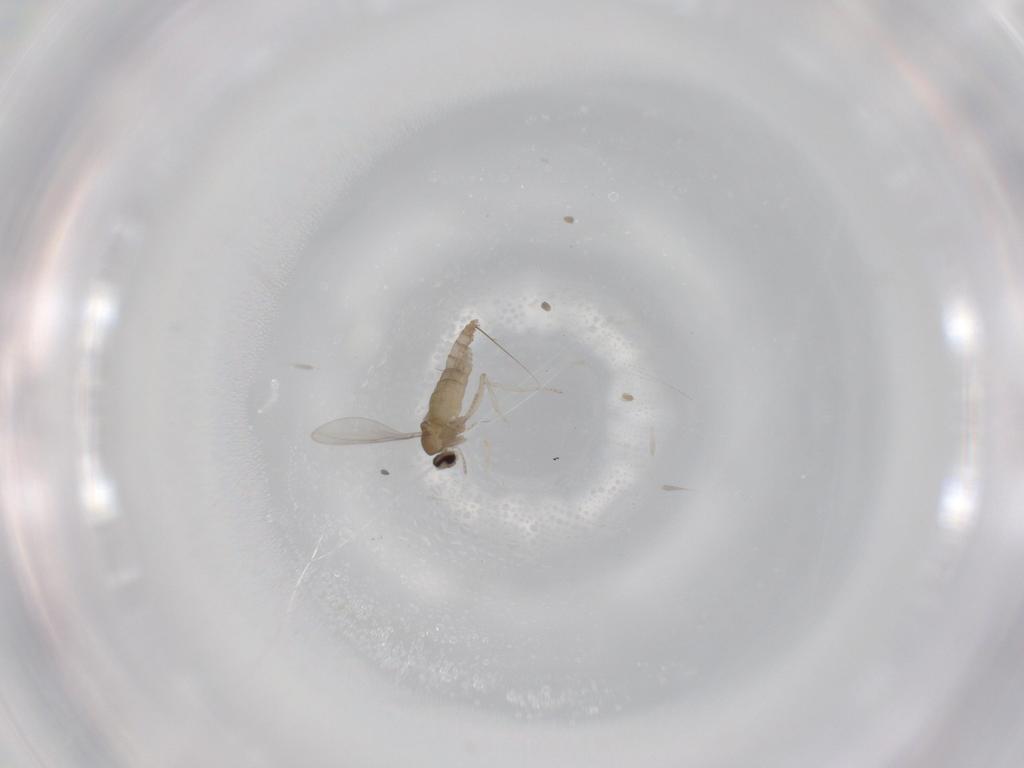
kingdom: Animalia
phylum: Arthropoda
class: Insecta
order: Diptera
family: Cecidomyiidae
